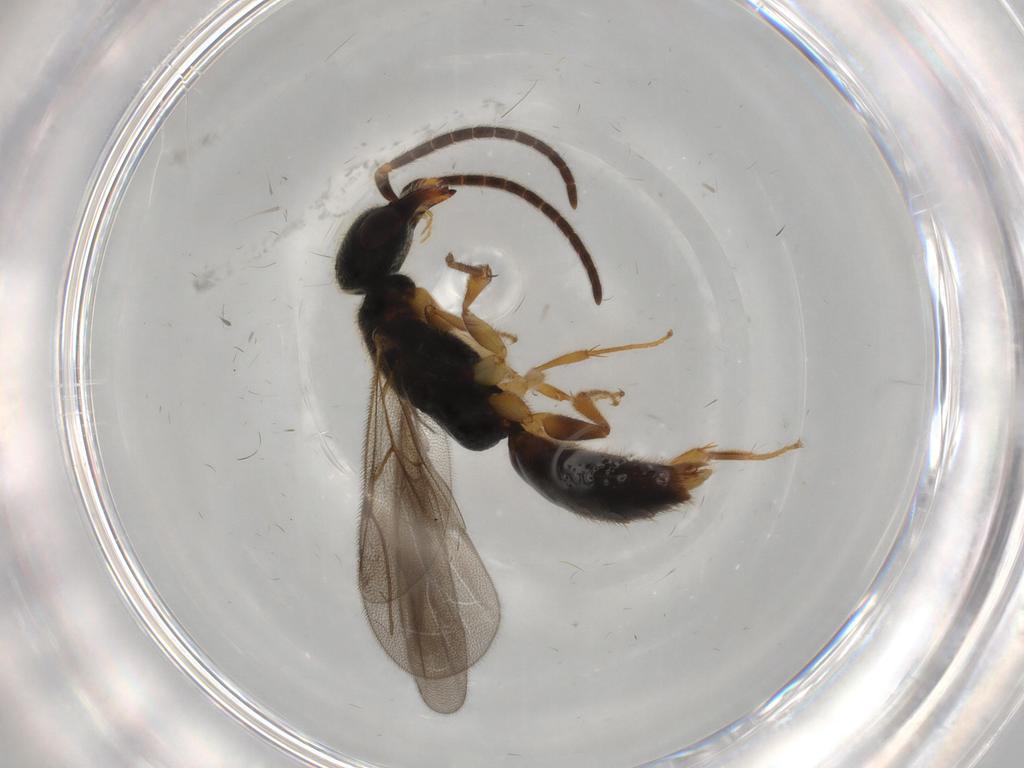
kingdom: Animalia
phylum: Arthropoda
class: Insecta
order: Hymenoptera
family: Bethylidae
